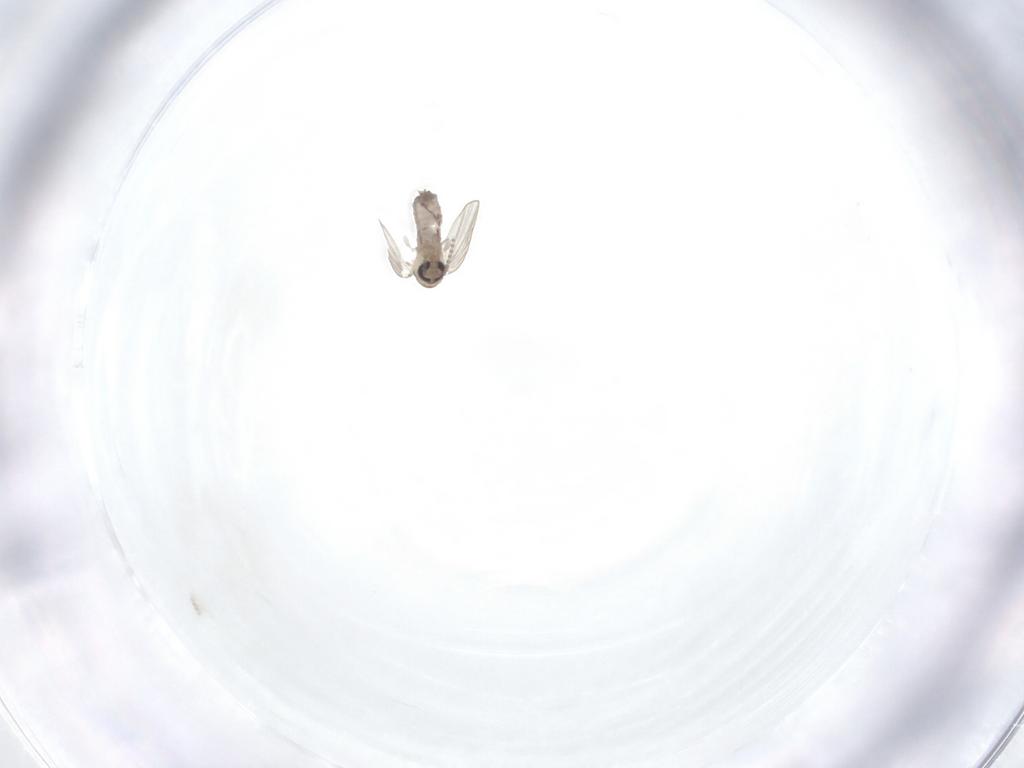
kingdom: Animalia
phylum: Arthropoda
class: Insecta
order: Diptera
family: Psychodidae
